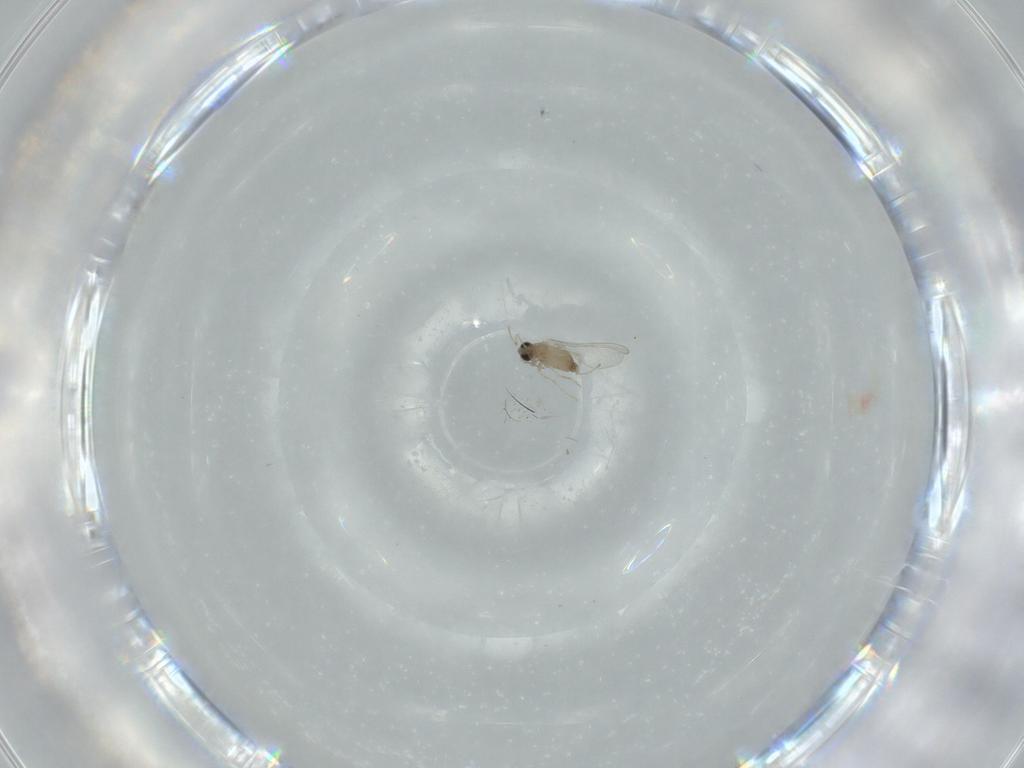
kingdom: Animalia
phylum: Arthropoda
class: Insecta
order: Diptera
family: Cecidomyiidae
